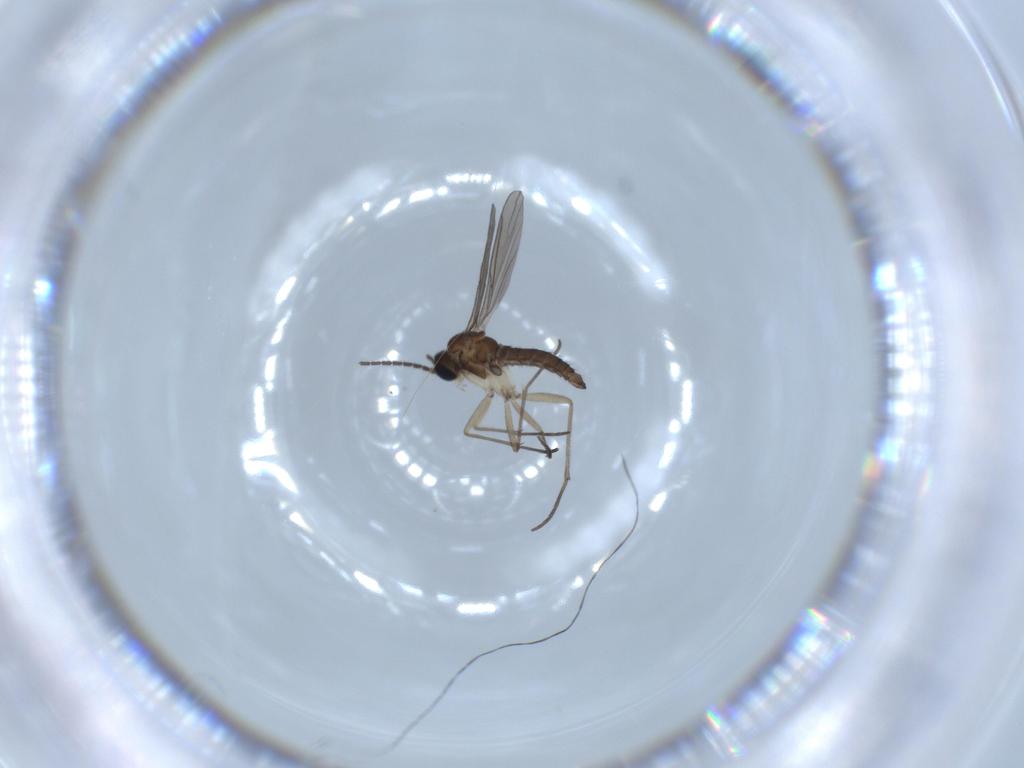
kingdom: Animalia
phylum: Arthropoda
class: Insecta
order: Diptera
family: Sciaridae
